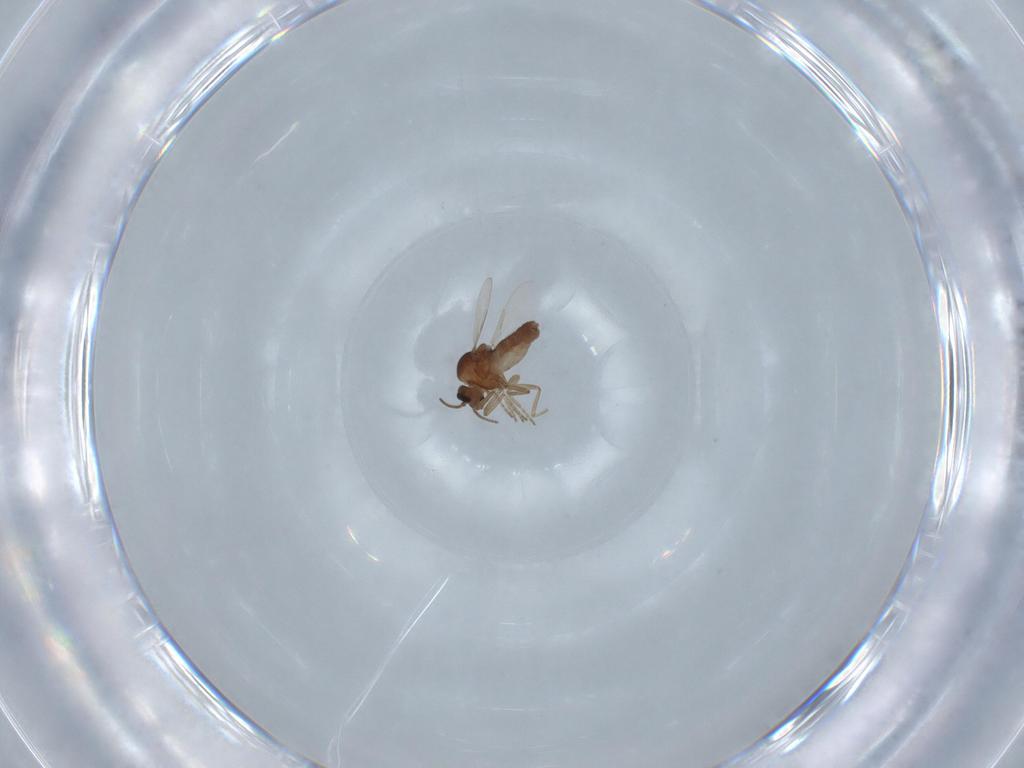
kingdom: Animalia
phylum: Arthropoda
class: Insecta
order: Diptera
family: Ceratopogonidae
